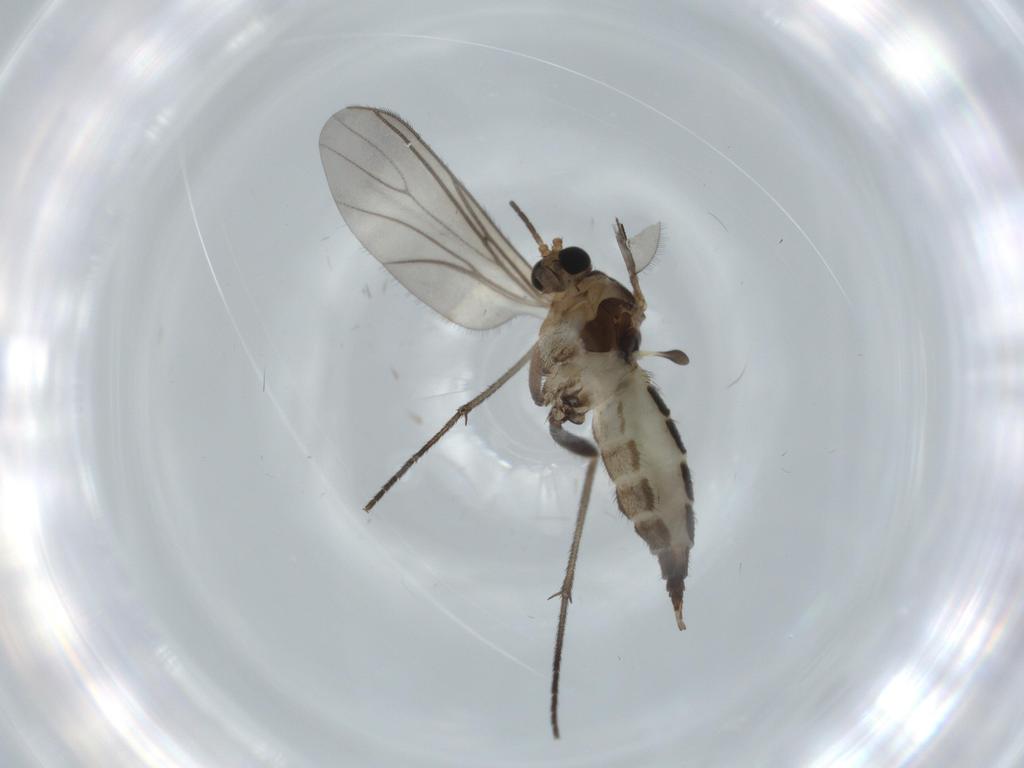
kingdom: Animalia
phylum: Arthropoda
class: Insecta
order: Diptera
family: Sciaridae
